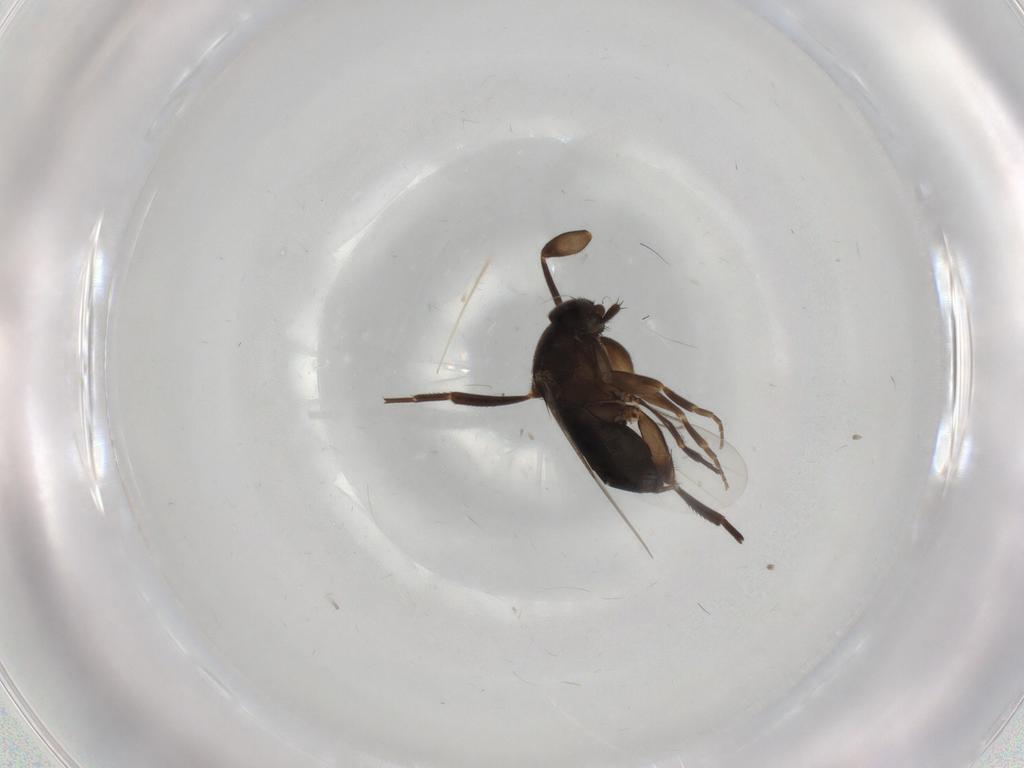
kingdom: Animalia
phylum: Arthropoda
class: Insecta
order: Diptera
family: Phoridae
